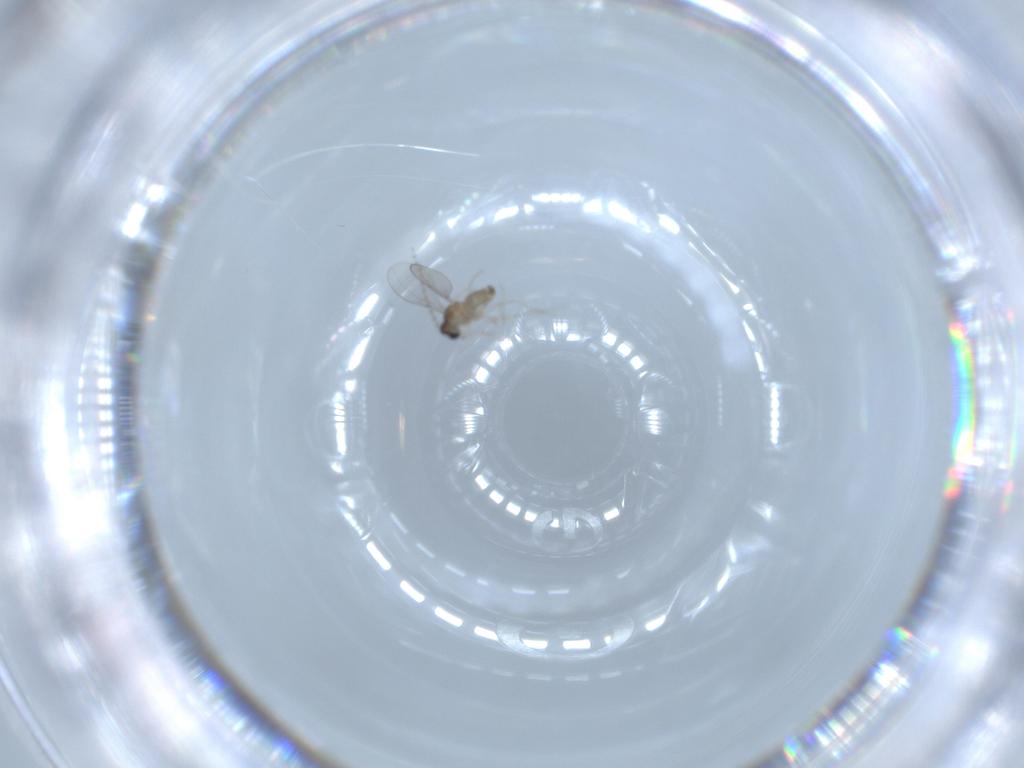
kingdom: Animalia
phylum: Arthropoda
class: Insecta
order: Diptera
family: Cecidomyiidae
